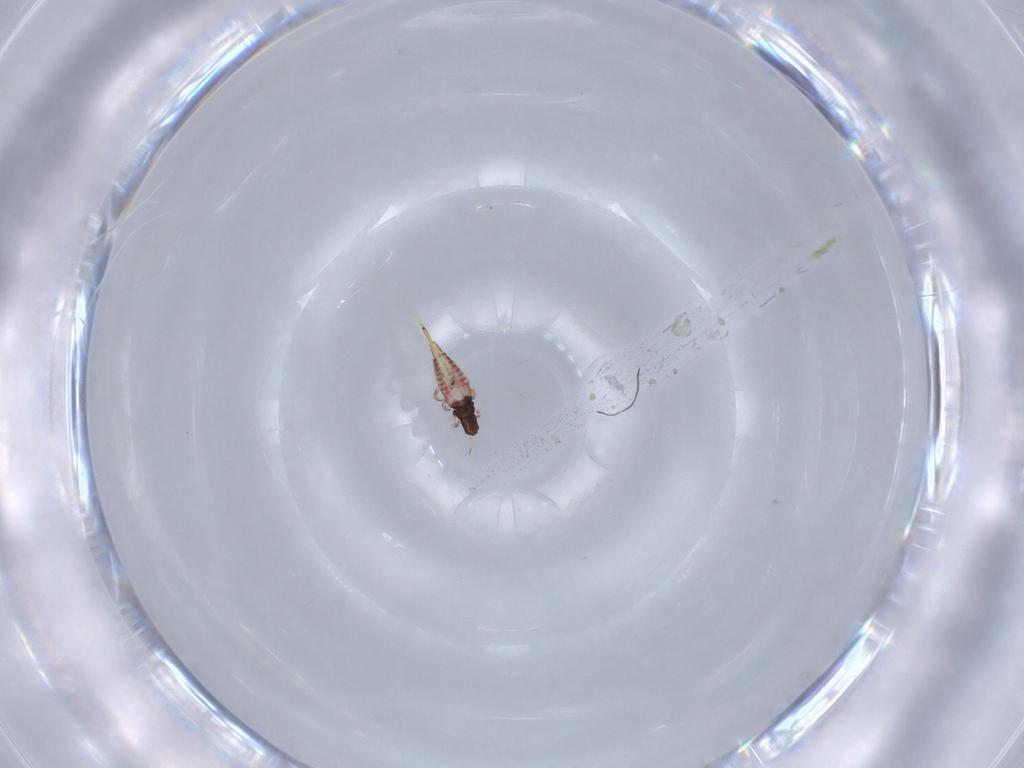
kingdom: Animalia
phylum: Arthropoda
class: Insecta
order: Thysanoptera
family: Phlaeothripidae
